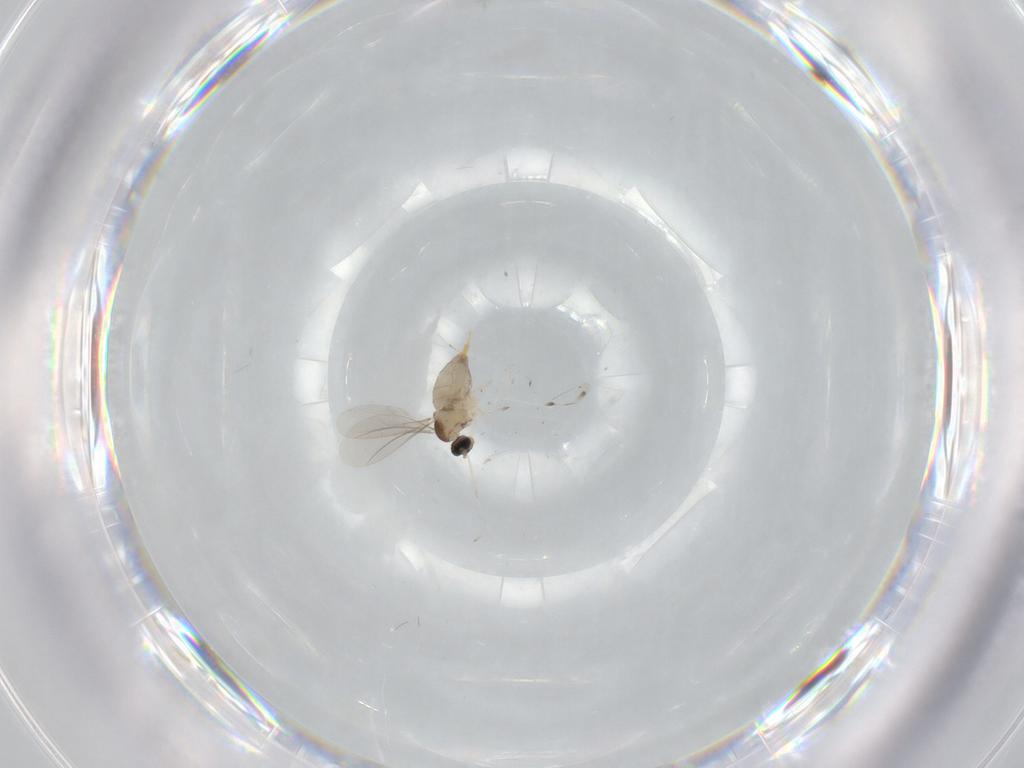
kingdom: Animalia
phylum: Arthropoda
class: Insecta
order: Diptera
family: Cecidomyiidae
